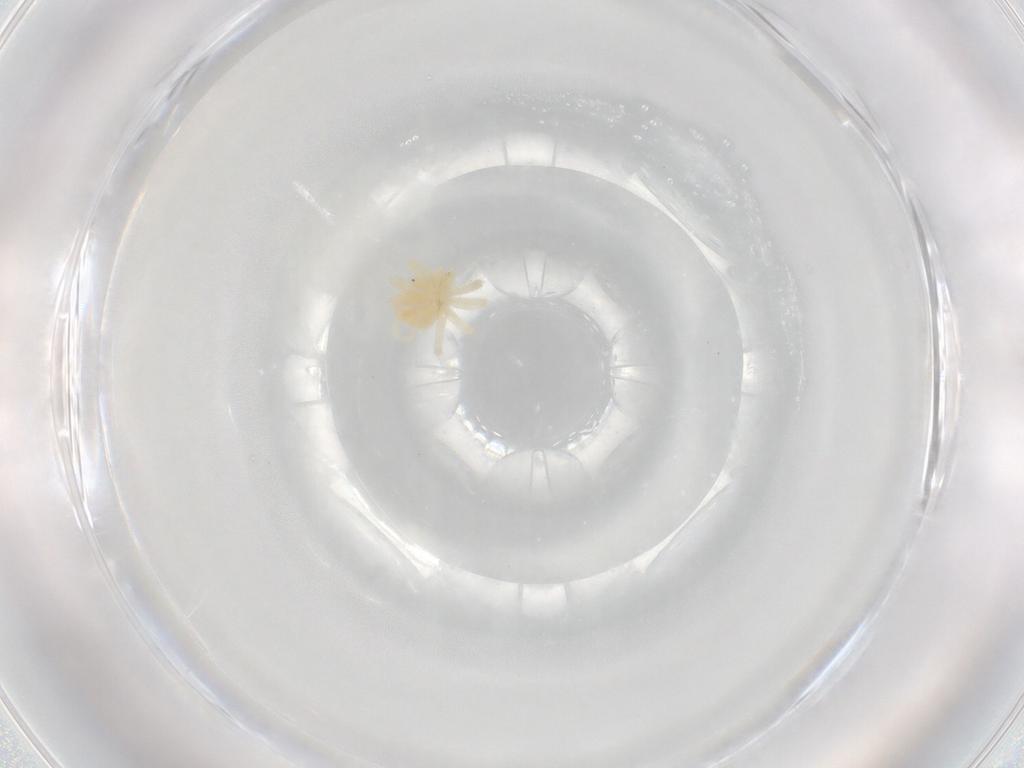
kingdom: Animalia
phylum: Arthropoda
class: Arachnida
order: Trombidiformes
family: Anystidae
